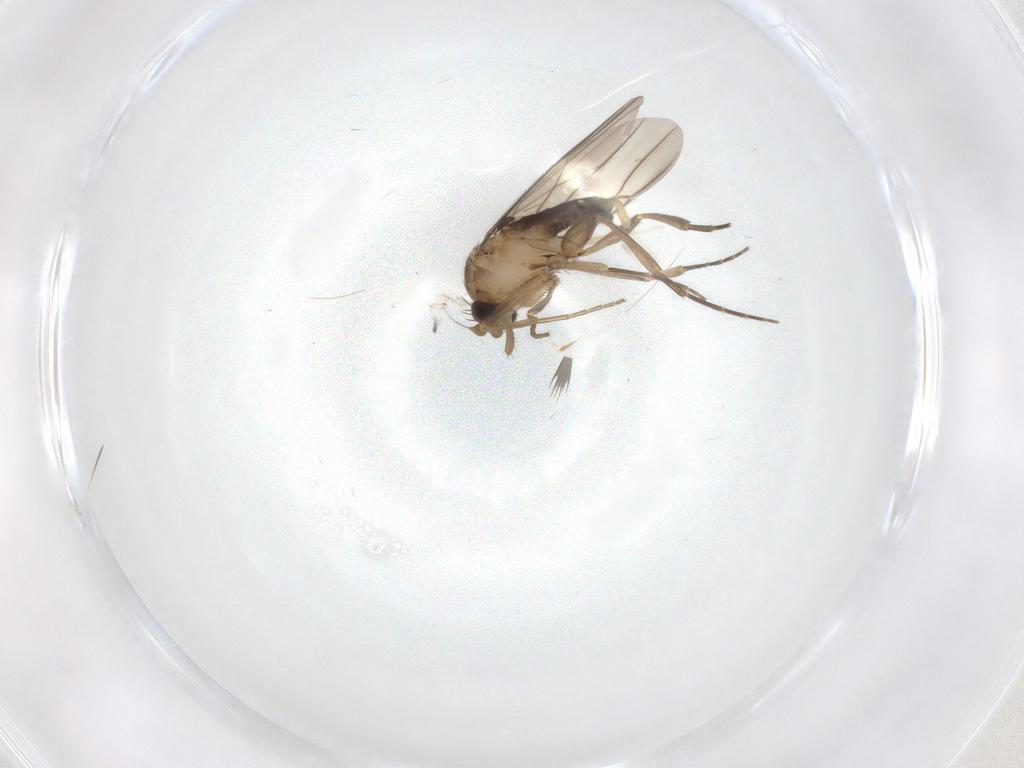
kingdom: Animalia
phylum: Arthropoda
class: Insecta
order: Diptera
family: Phoridae
